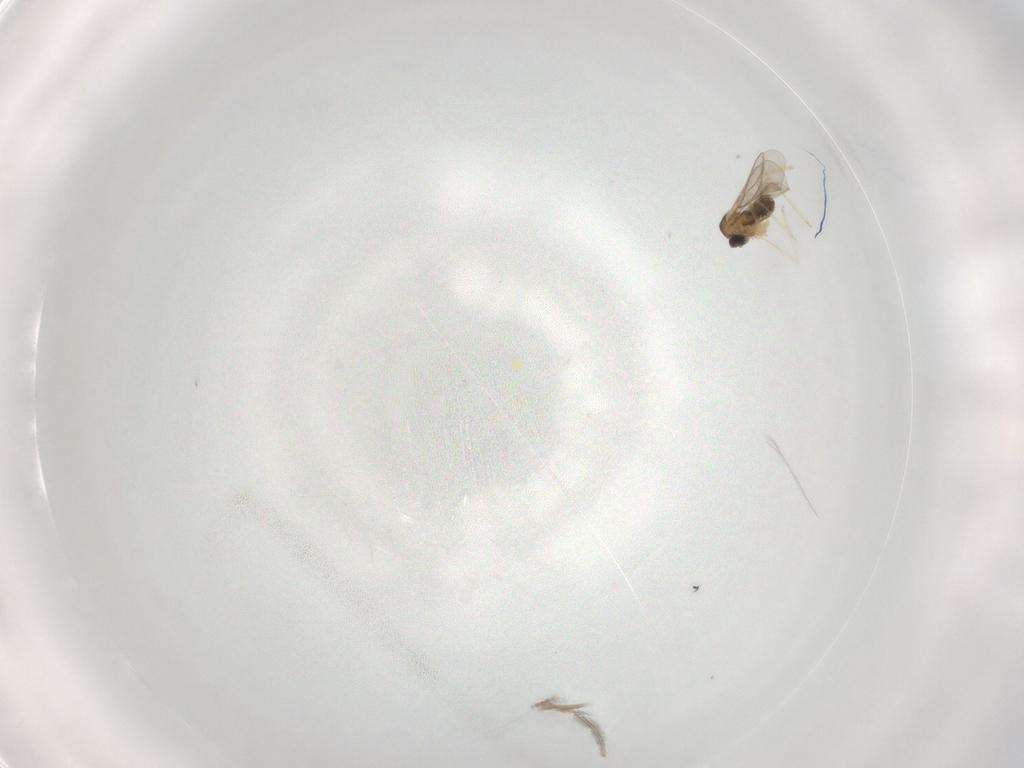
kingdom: Animalia
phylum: Arthropoda
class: Insecta
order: Diptera
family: Cecidomyiidae
